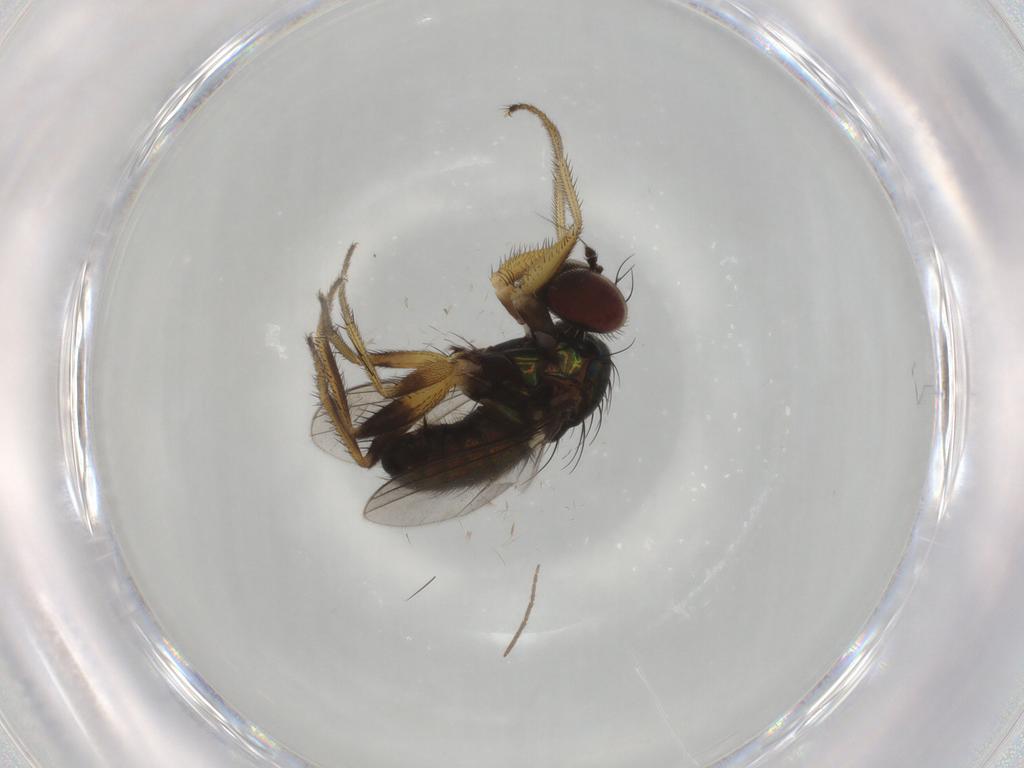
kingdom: Animalia
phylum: Arthropoda
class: Insecta
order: Diptera
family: Dolichopodidae
